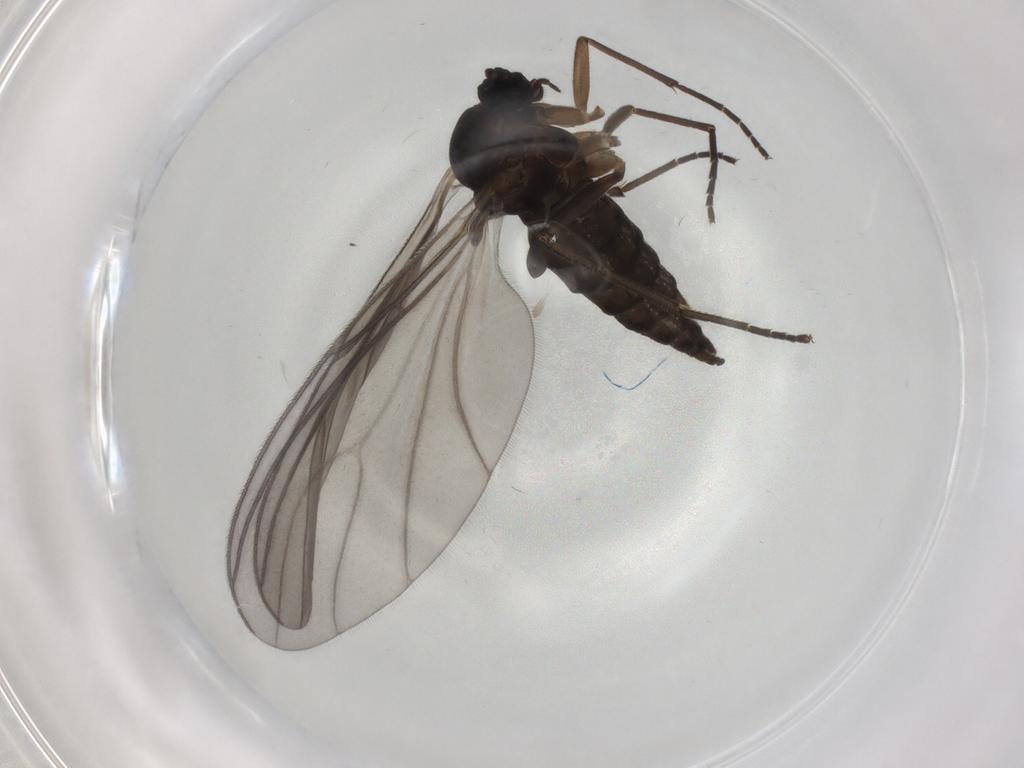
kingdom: Animalia
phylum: Arthropoda
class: Insecta
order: Diptera
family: Sciaridae
